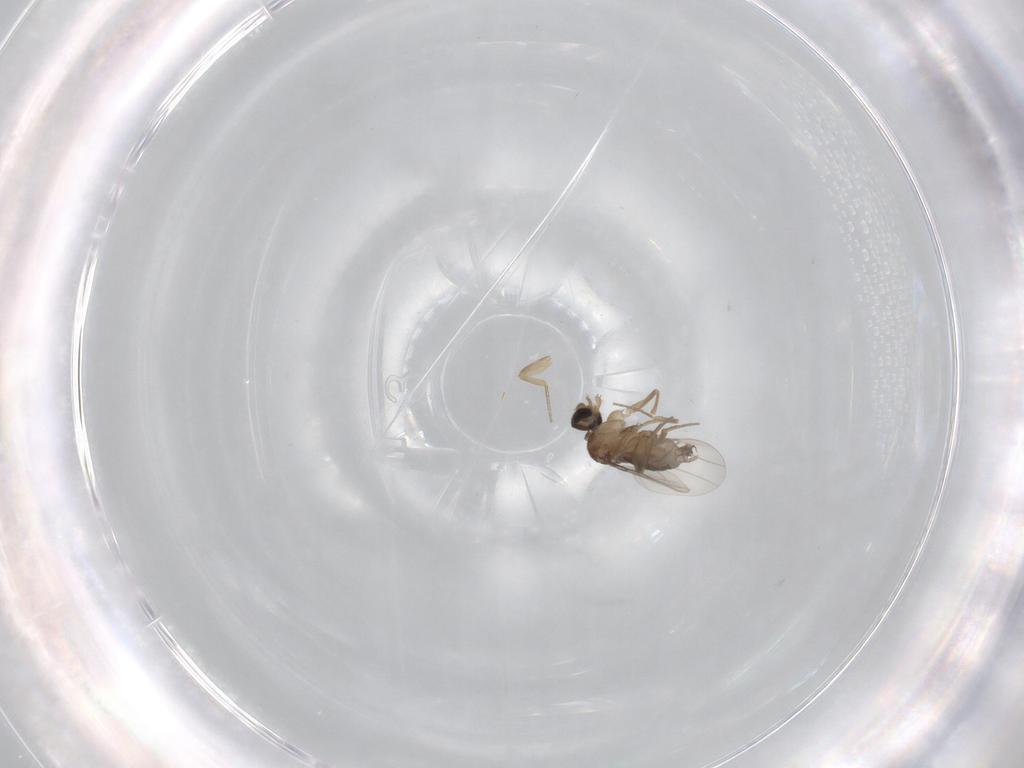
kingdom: Animalia
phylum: Arthropoda
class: Insecta
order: Diptera
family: Phoridae
